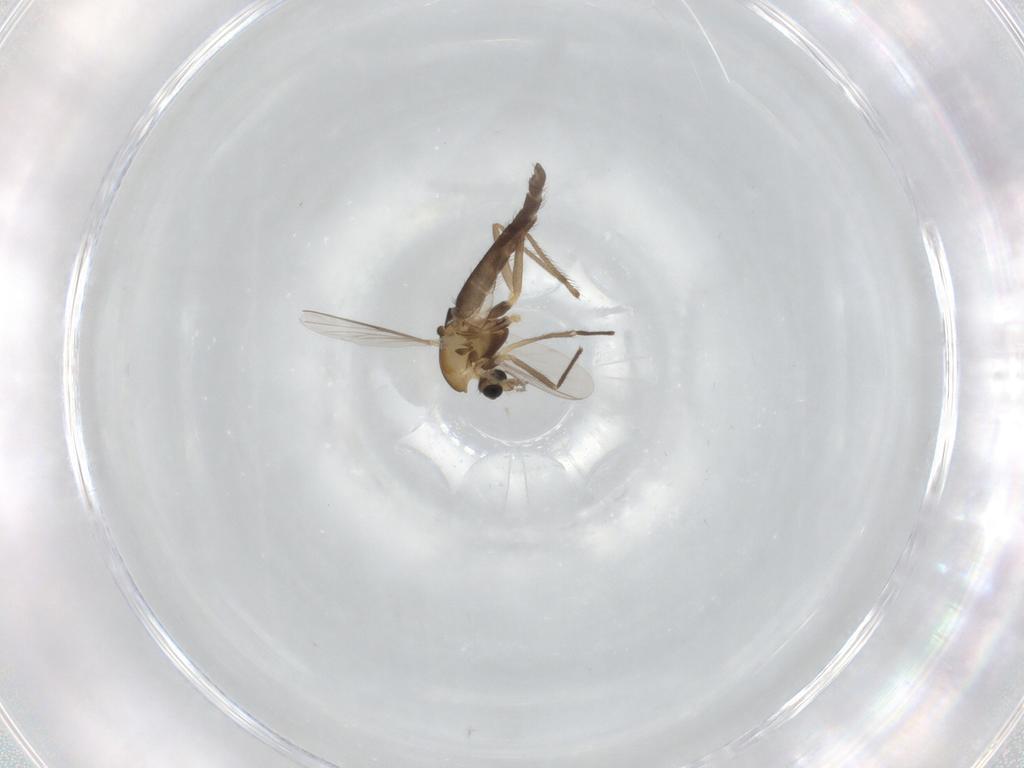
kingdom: Animalia
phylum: Arthropoda
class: Insecta
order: Diptera
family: Chironomidae
